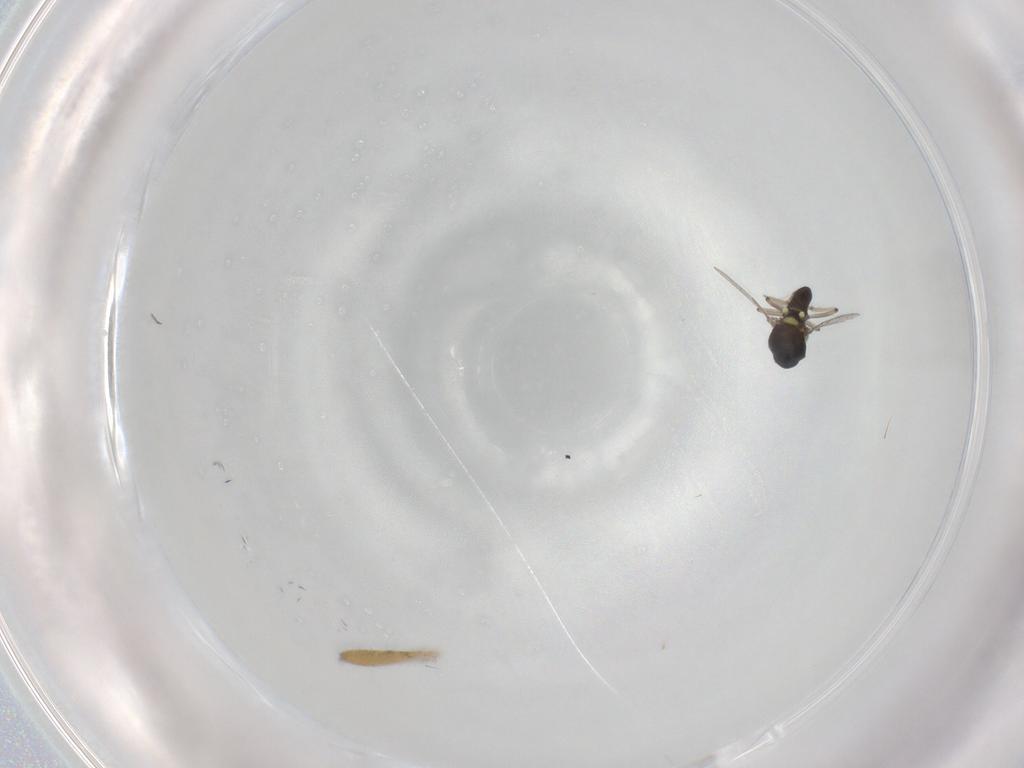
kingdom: Animalia
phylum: Arthropoda
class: Insecta
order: Diptera
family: Ceratopogonidae
